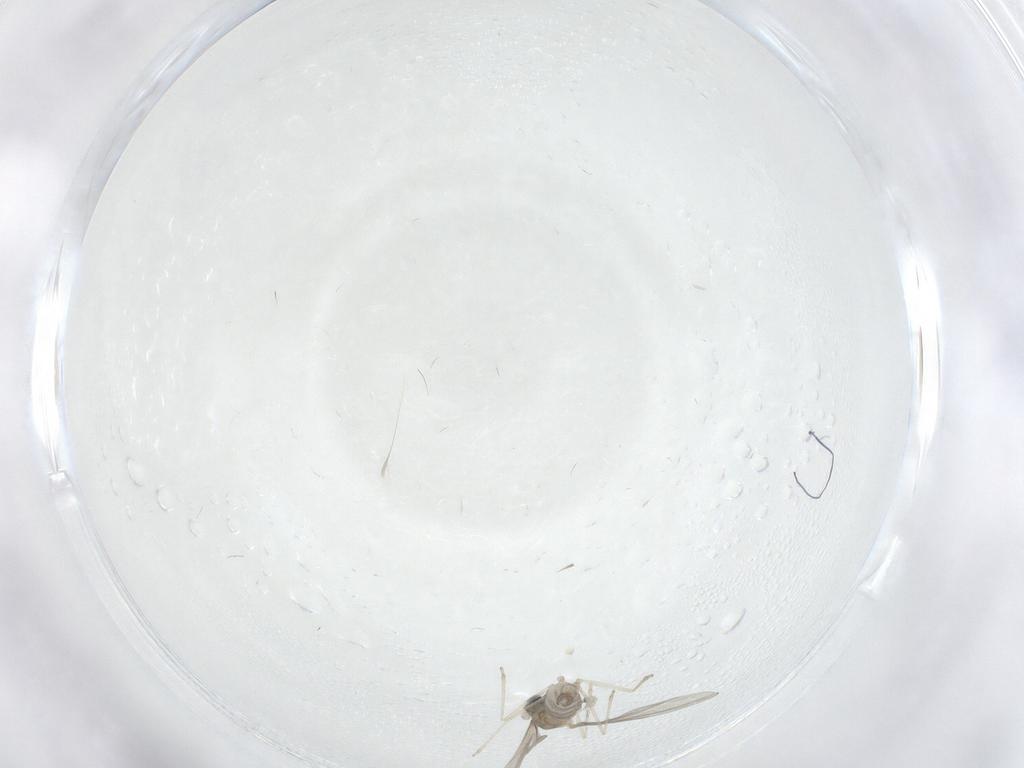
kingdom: Animalia
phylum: Arthropoda
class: Insecta
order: Diptera
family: Cecidomyiidae
